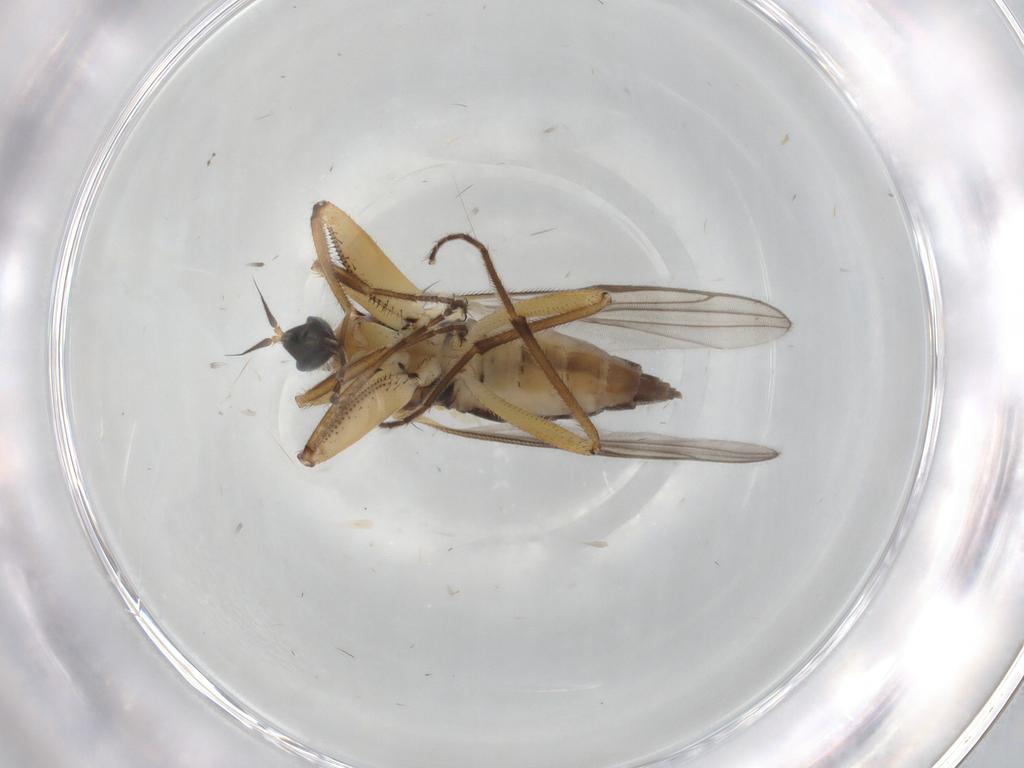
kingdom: Animalia
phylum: Arthropoda
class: Insecta
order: Diptera
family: Hybotidae
